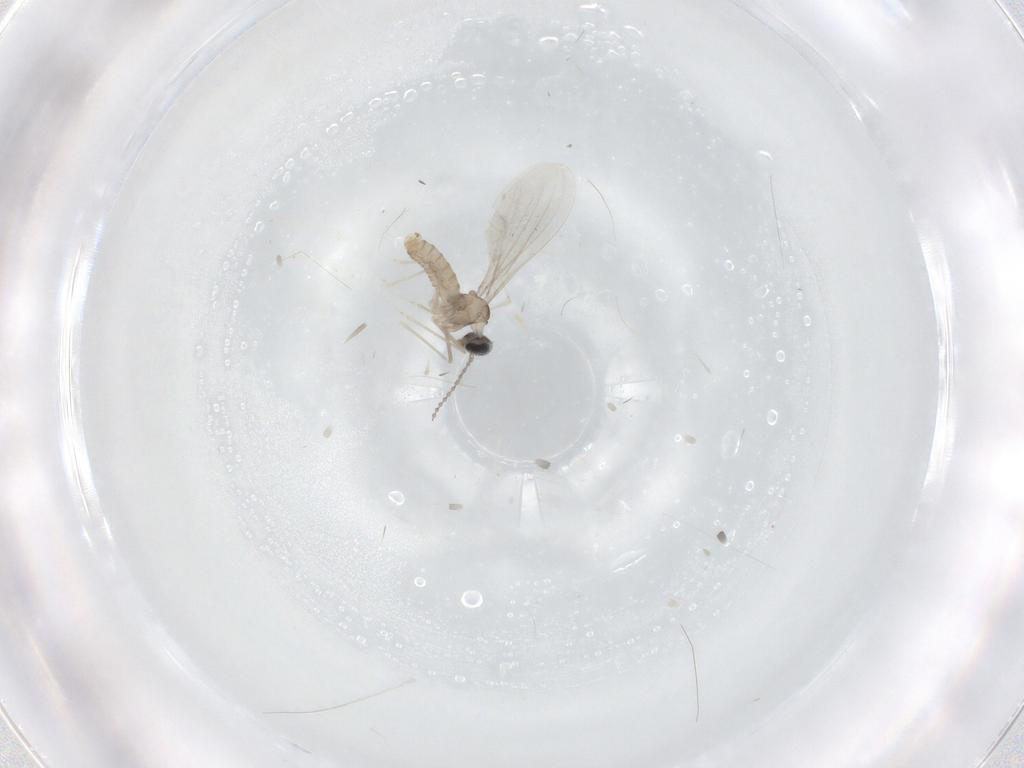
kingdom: Animalia
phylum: Arthropoda
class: Insecta
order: Diptera
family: Cecidomyiidae
